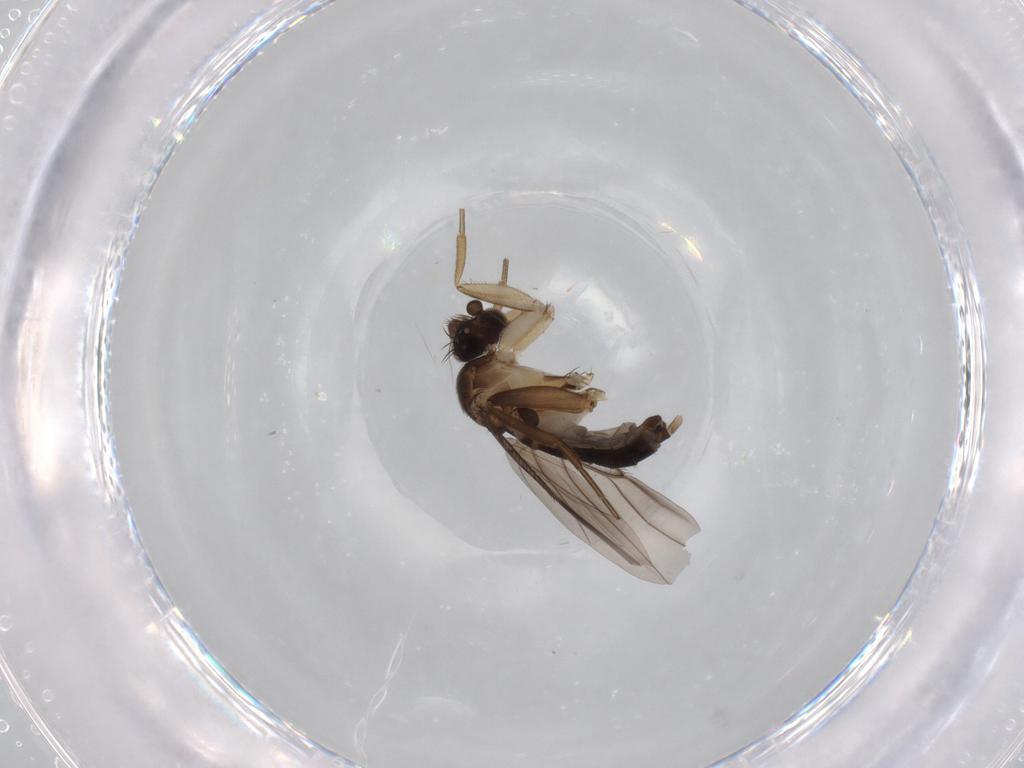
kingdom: Animalia
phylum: Arthropoda
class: Insecta
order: Diptera
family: Phoridae
